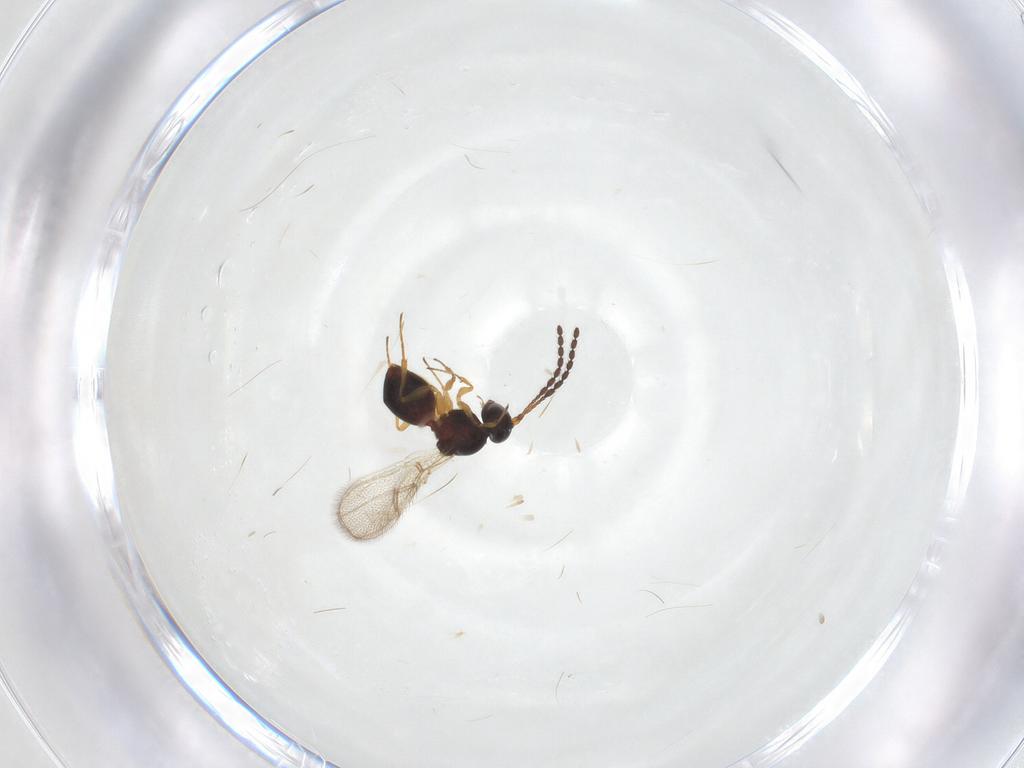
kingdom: Animalia
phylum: Arthropoda
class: Insecta
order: Hymenoptera
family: Figitidae
